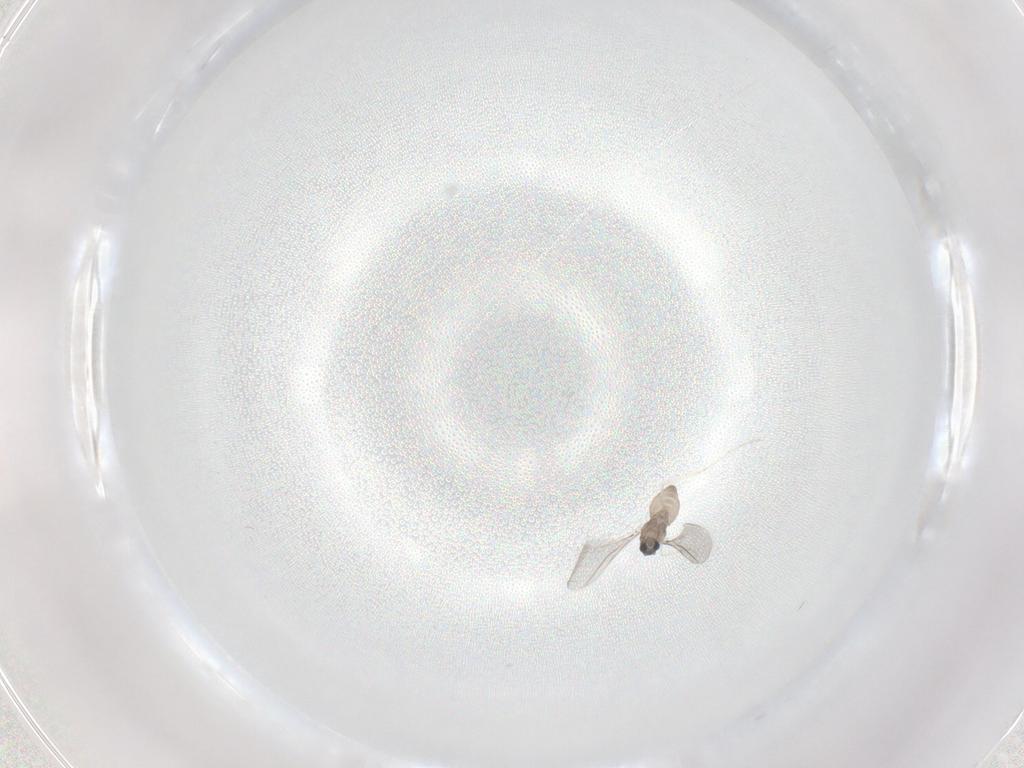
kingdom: Animalia
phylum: Arthropoda
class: Insecta
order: Diptera
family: Cecidomyiidae
